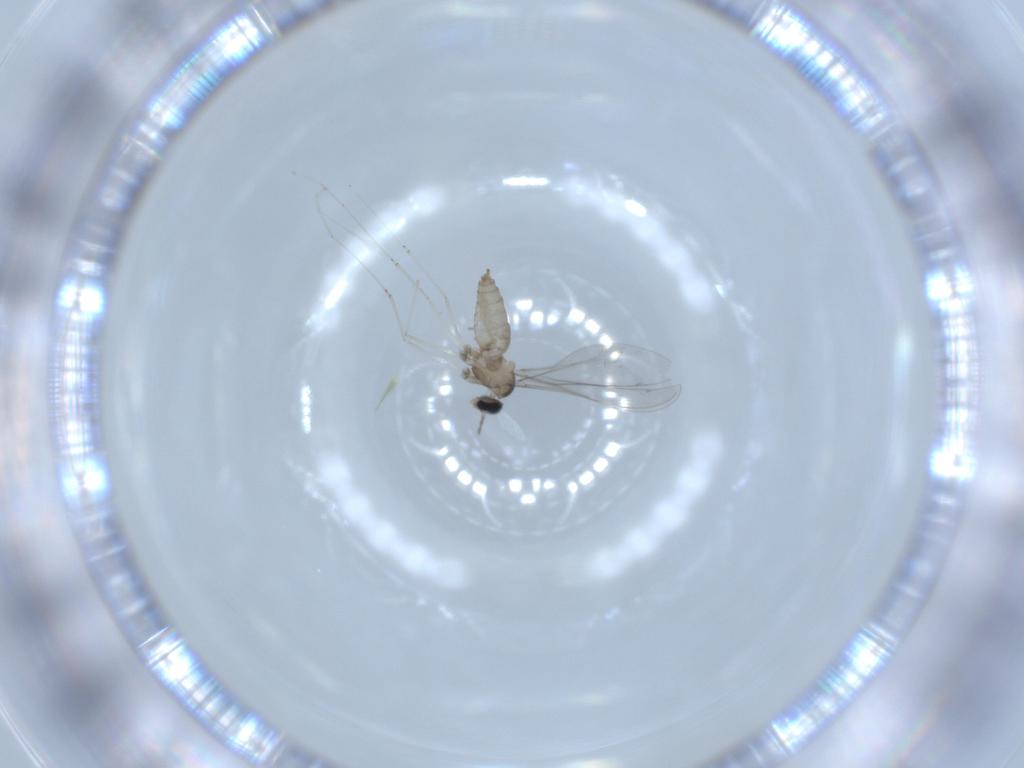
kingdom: Animalia
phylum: Arthropoda
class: Insecta
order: Diptera
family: Cecidomyiidae
